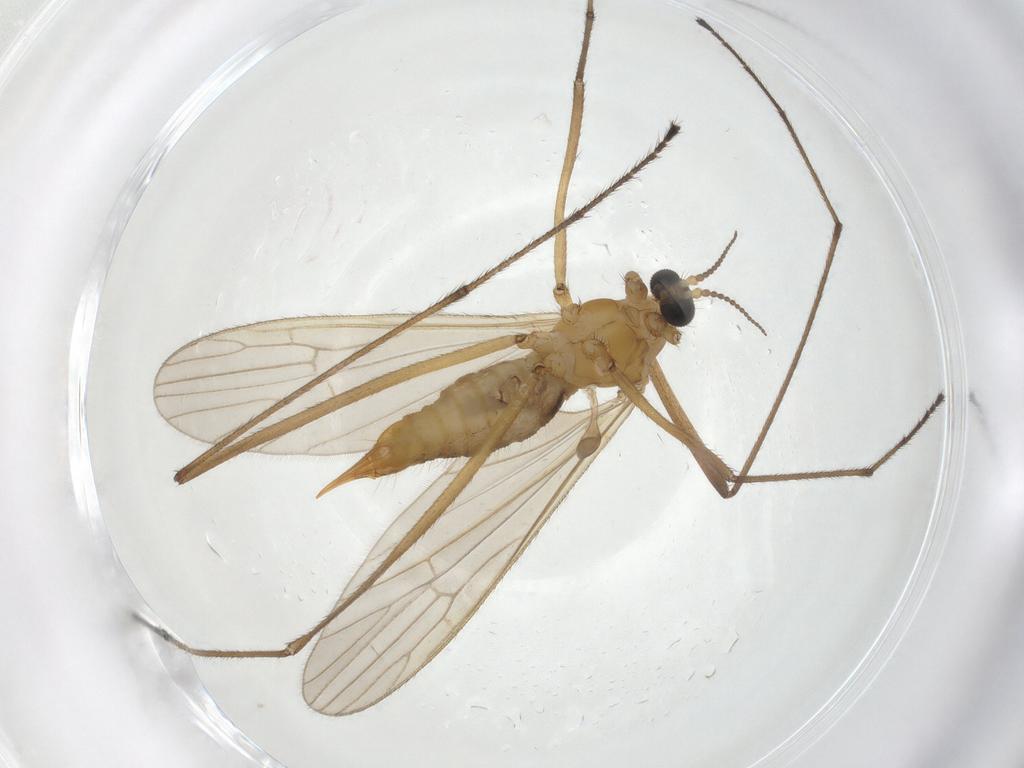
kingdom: Animalia
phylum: Arthropoda
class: Insecta
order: Diptera
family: Limoniidae
